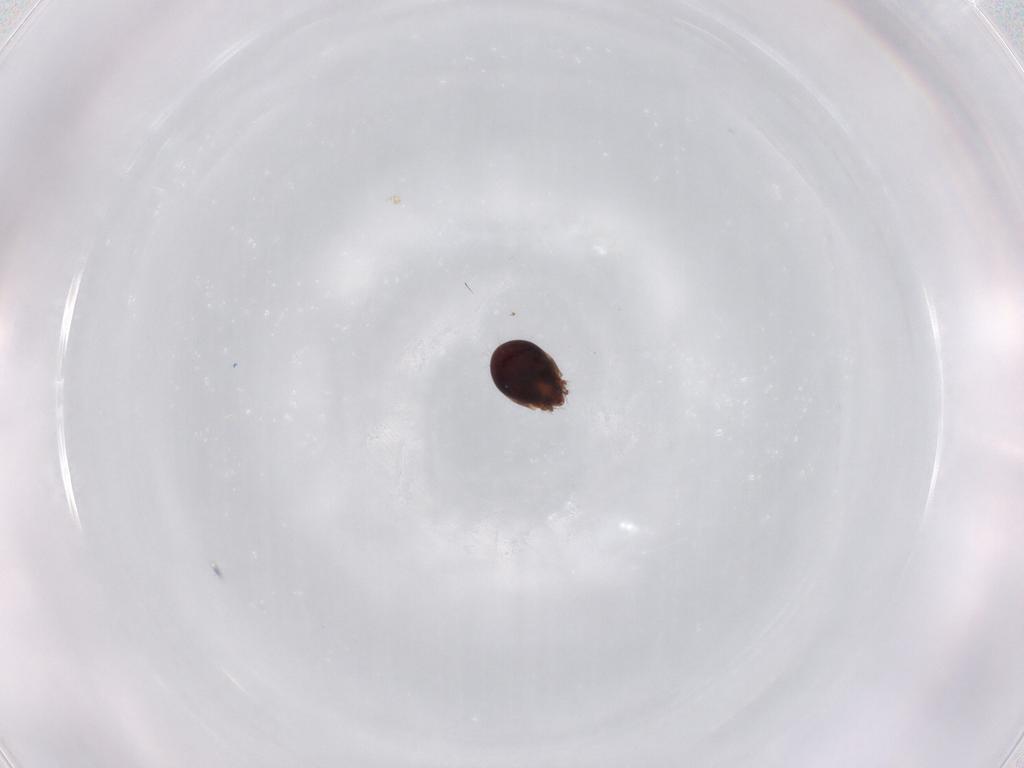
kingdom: Animalia
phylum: Arthropoda
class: Arachnida
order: Sarcoptiformes
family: Humerobatidae
